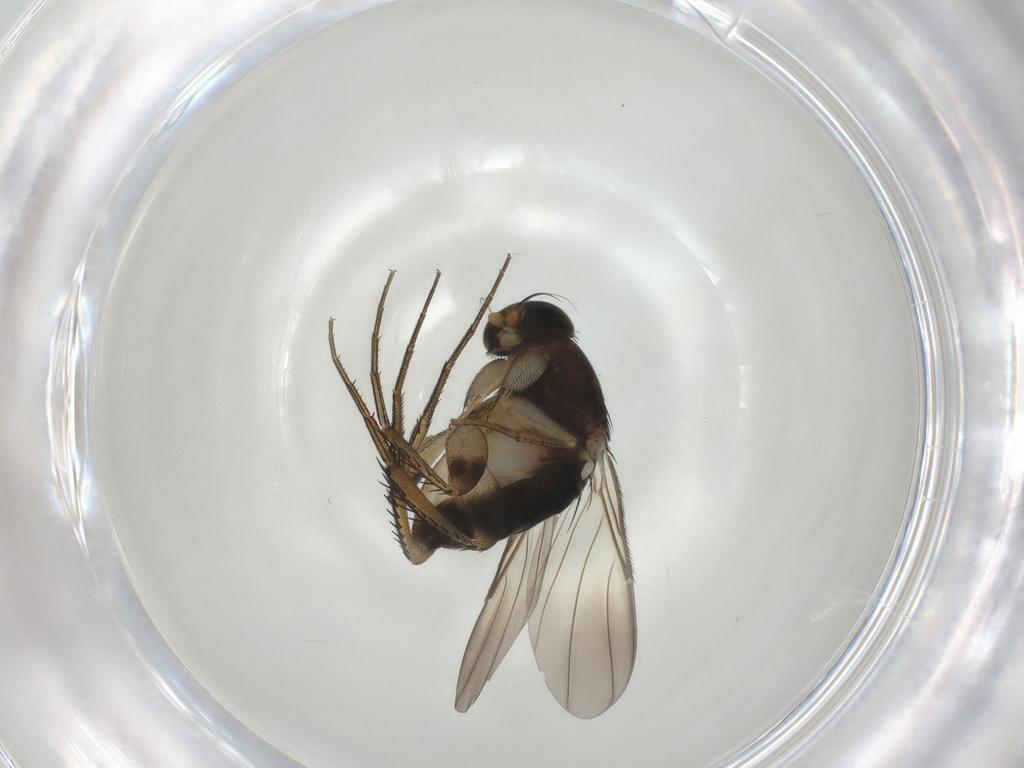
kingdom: Animalia
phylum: Arthropoda
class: Insecta
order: Diptera
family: Phoridae
